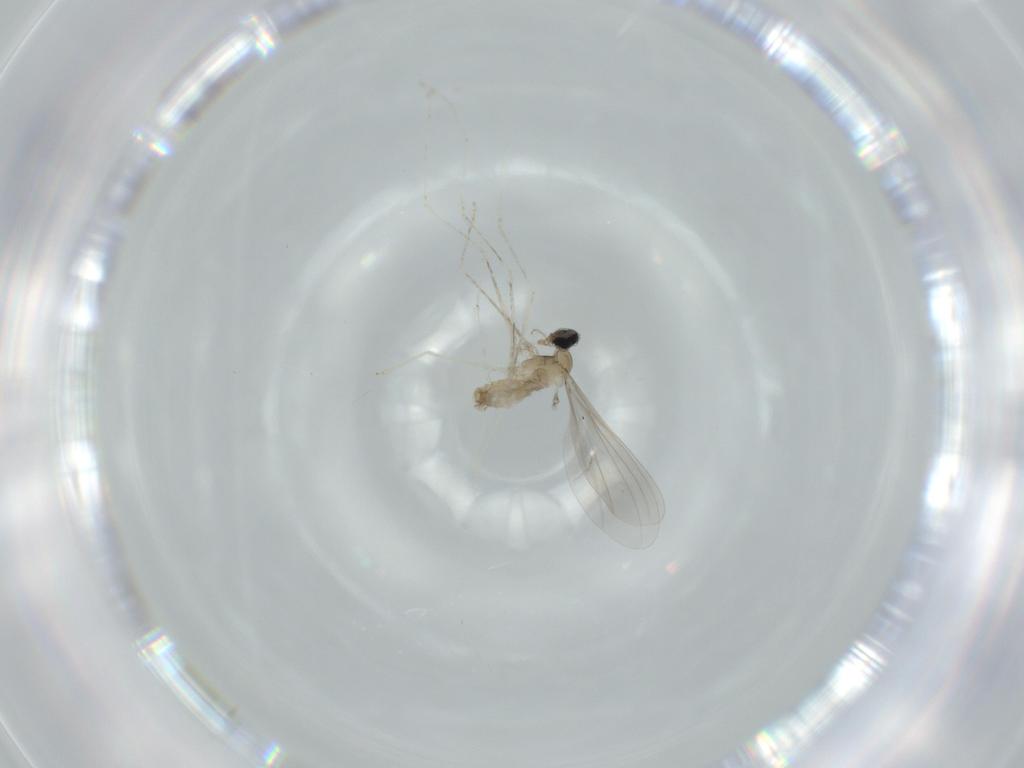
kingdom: Animalia
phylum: Arthropoda
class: Insecta
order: Diptera
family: Cecidomyiidae
